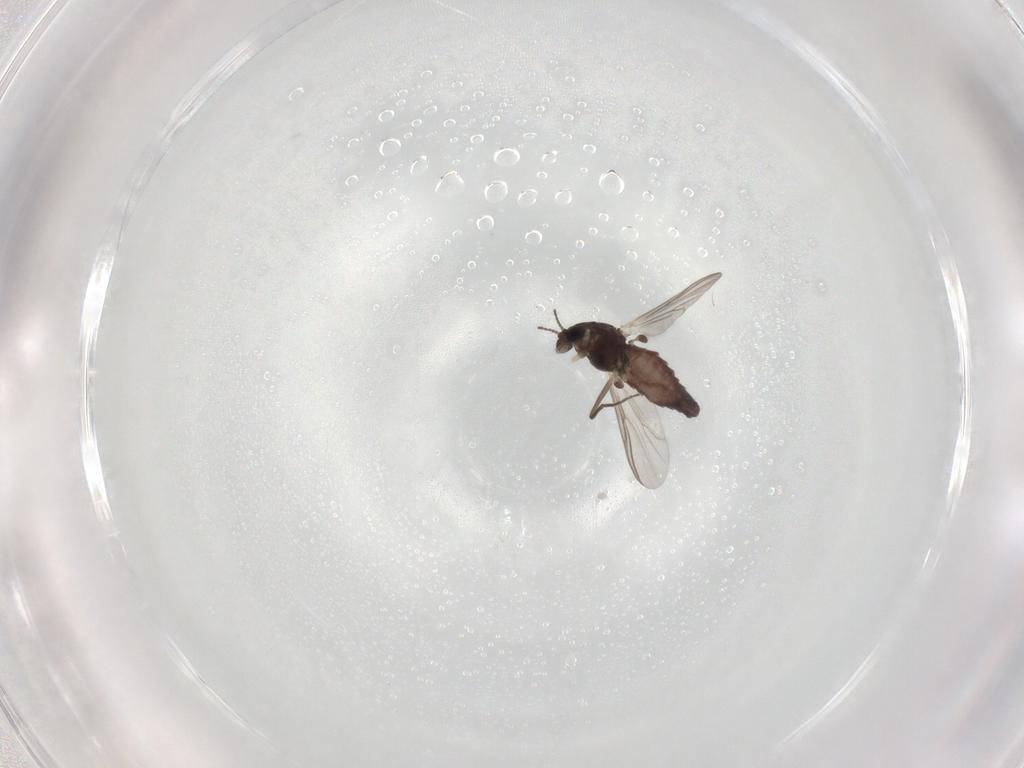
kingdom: Animalia
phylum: Arthropoda
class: Insecta
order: Diptera
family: Chironomidae
